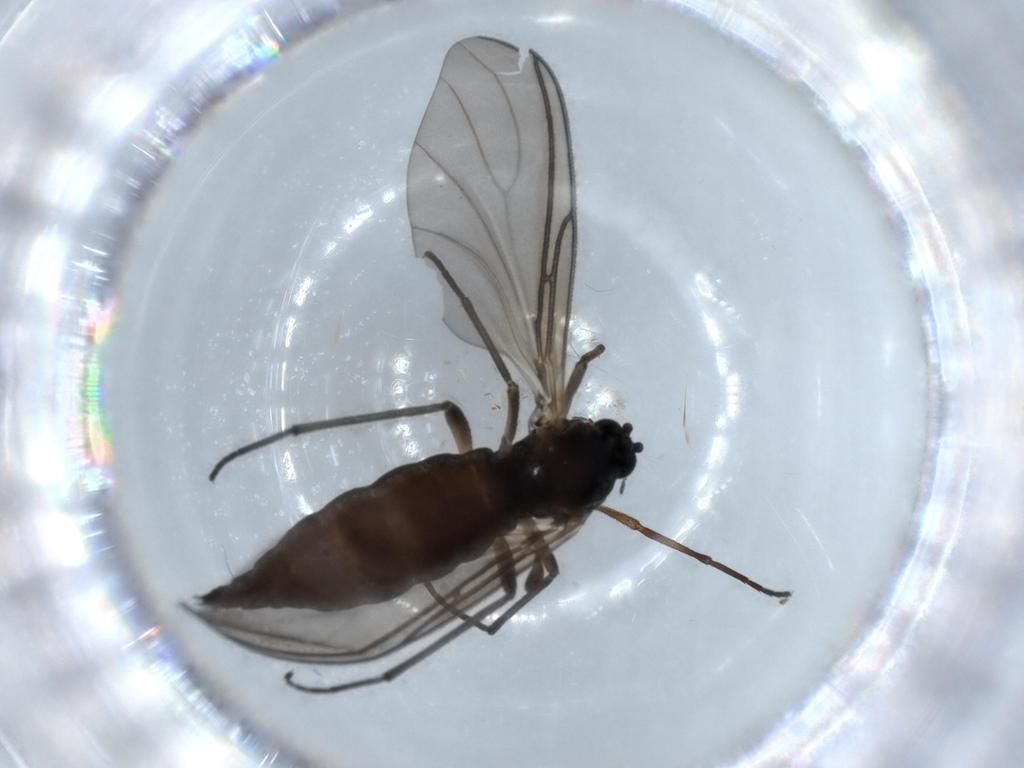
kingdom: Animalia
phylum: Arthropoda
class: Insecta
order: Diptera
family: Sciaridae
